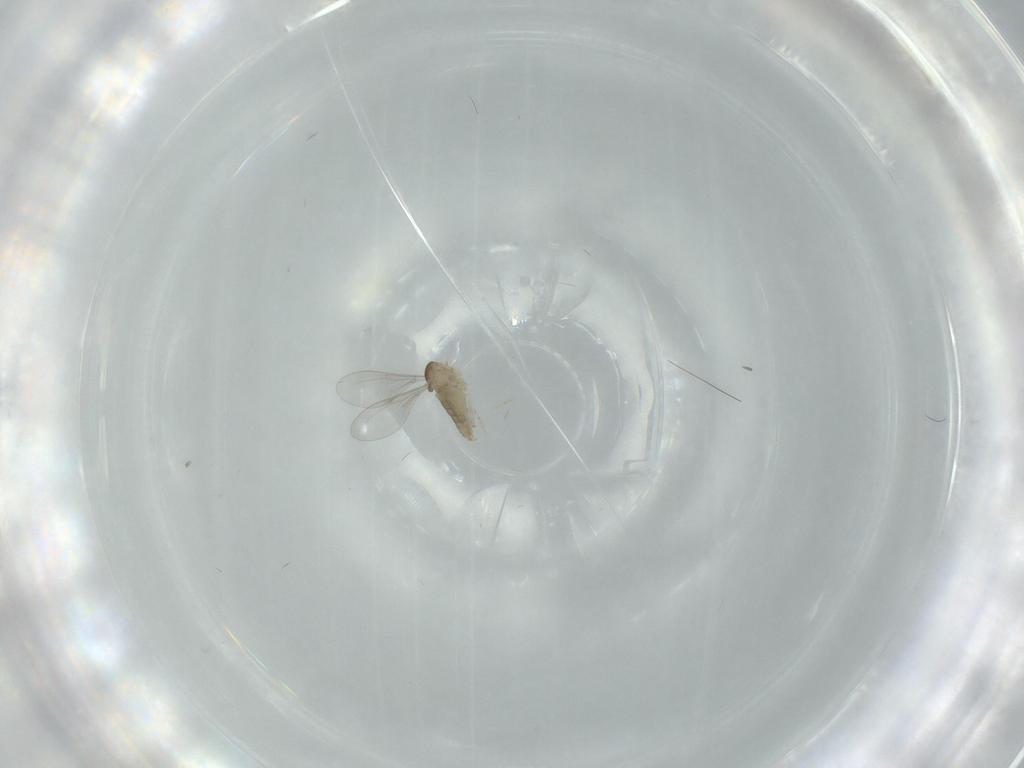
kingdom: Animalia
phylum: Arthropoda
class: Insecta
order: Diptera
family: Cecidomyiidae
